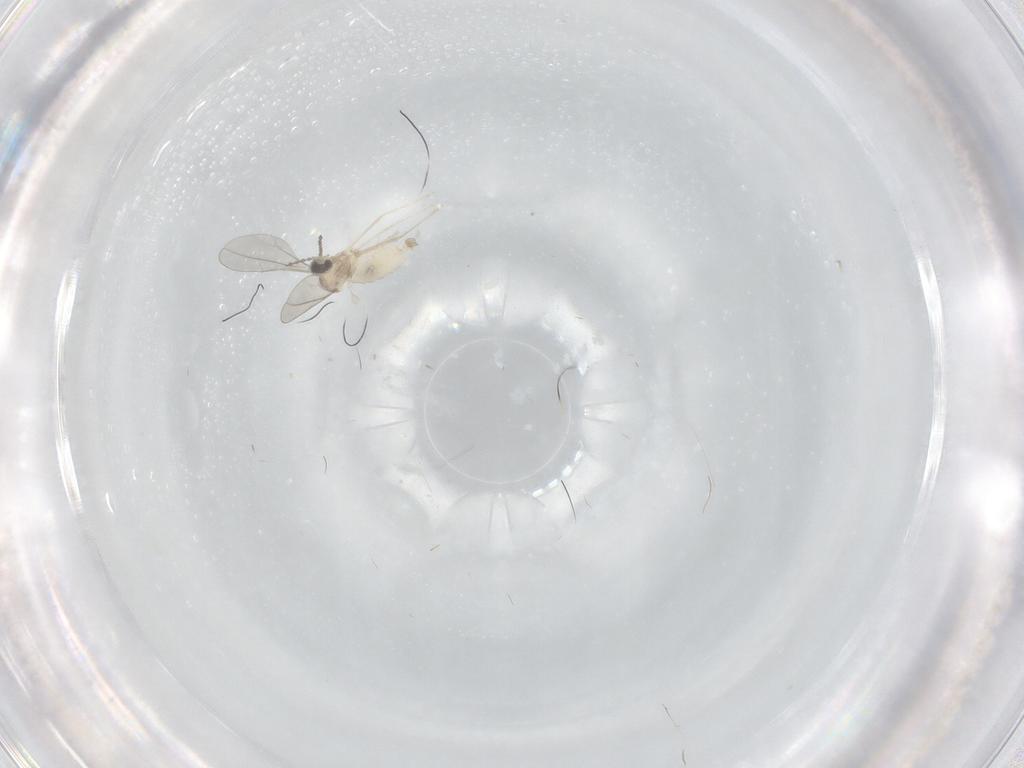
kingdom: Animalia
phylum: Arthropoda
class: Insecta
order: Diptera
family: Cecidomyiidae
